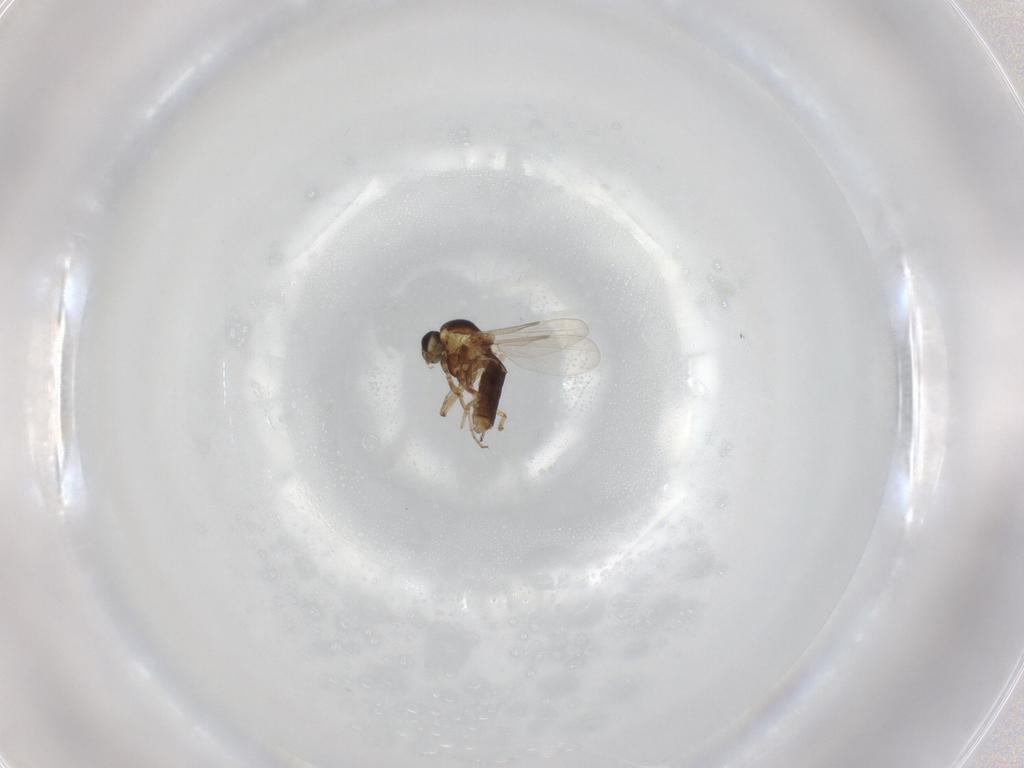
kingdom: Animalia
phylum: Arthropoda
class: Insecta
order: Diptera
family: Ceratopogonidae
